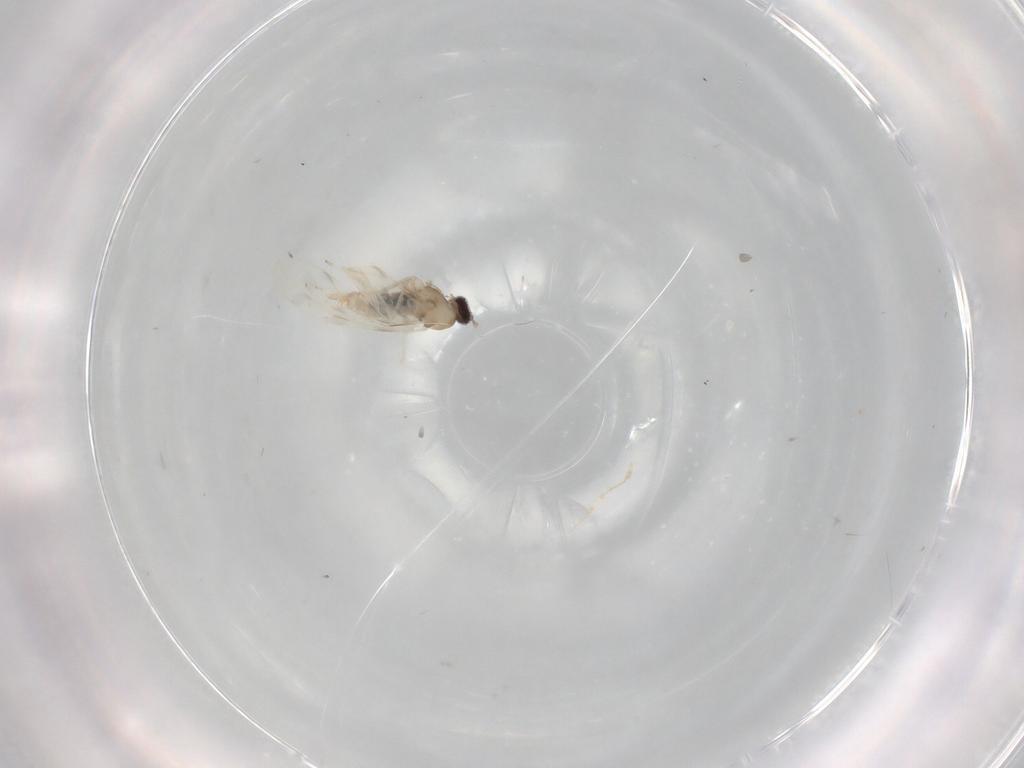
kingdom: Animalia
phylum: Arthropoda
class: Insecta
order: Diptera
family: Cecidomyiidae
